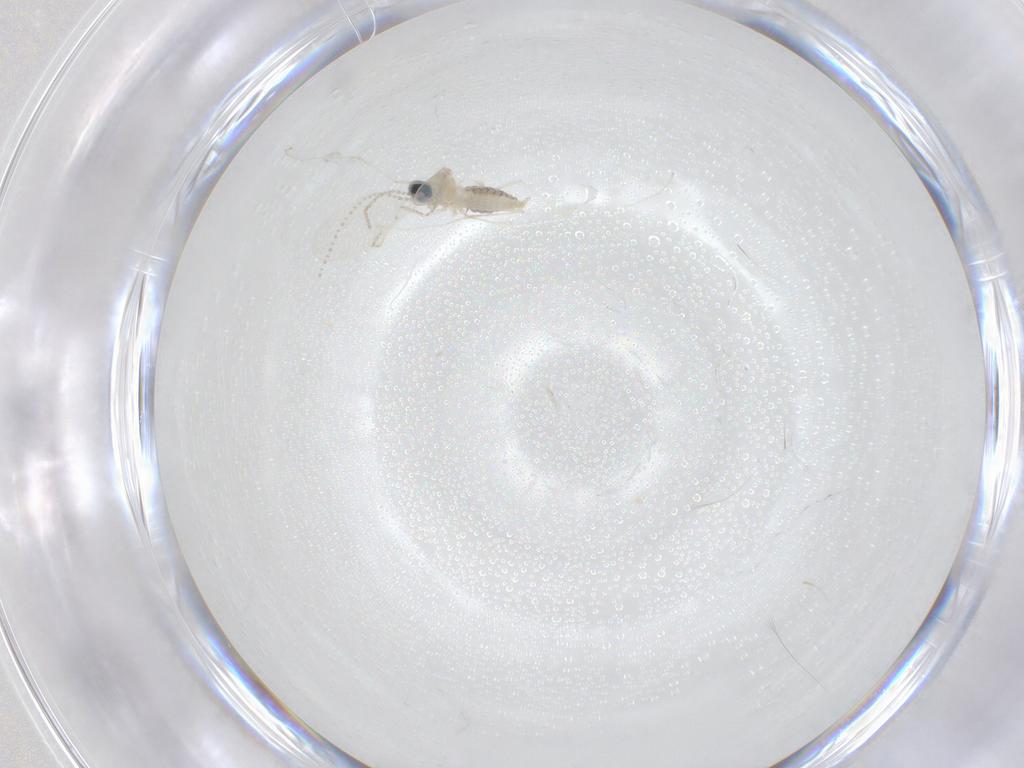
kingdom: Animalia
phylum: Arthropoda
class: Insecta
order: Diptera
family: Cecidomyiidae
